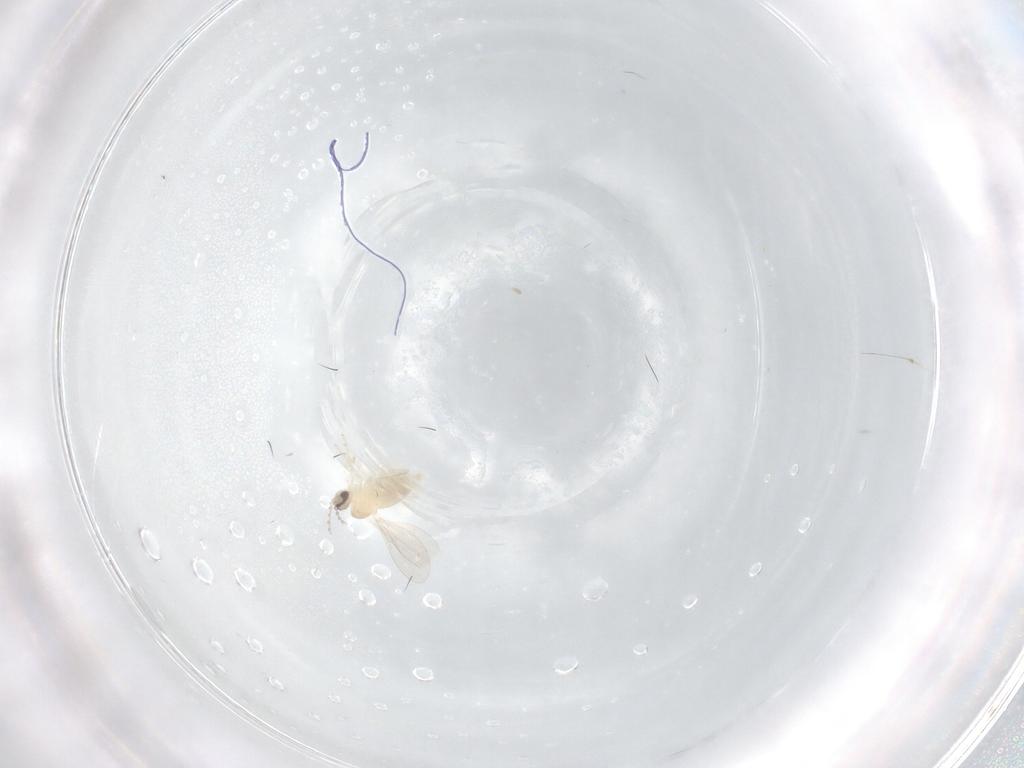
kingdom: Animalia
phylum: Arthropoda
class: Insecta
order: Diptera
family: Cecidomyiidae
